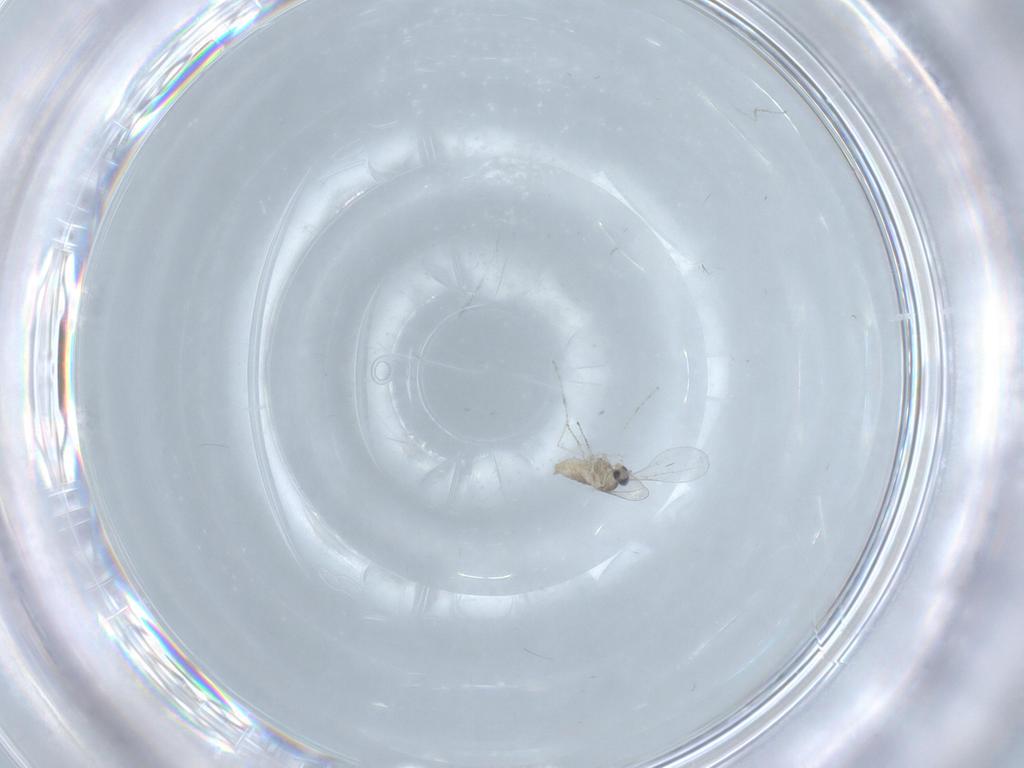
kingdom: Animalia
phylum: Arthropoda
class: Insecta
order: Diptera
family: Cecidomyiidae
